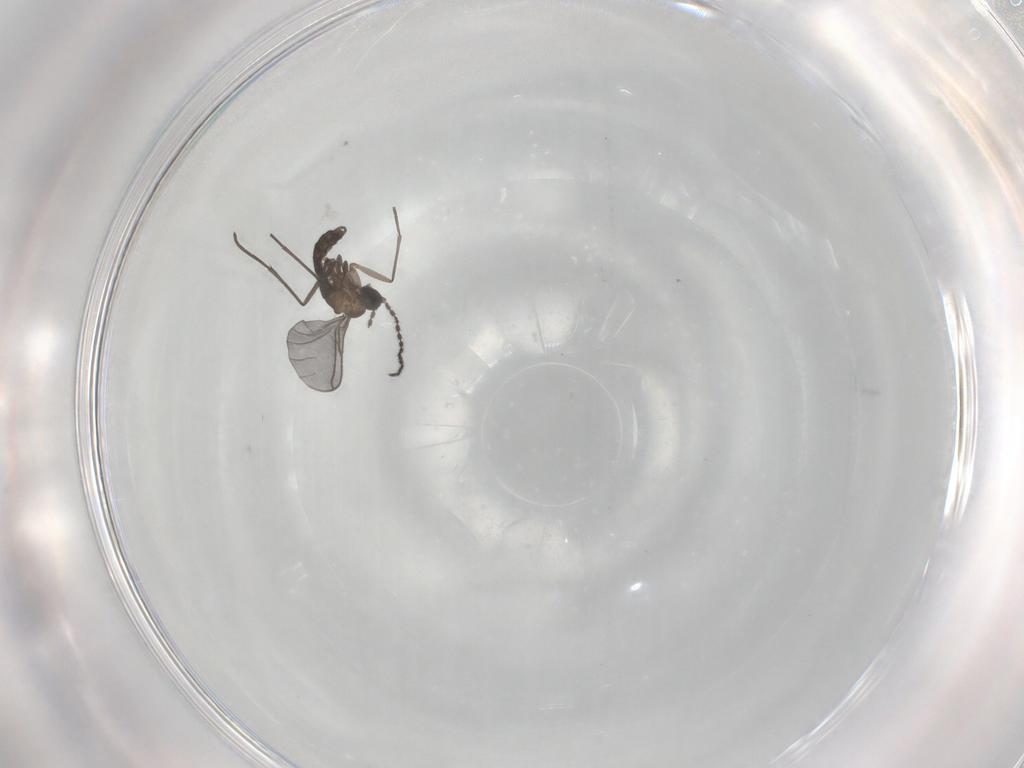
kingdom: Animalia
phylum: Arthropoda
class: Insecta
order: Diptera
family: Sciaridae
